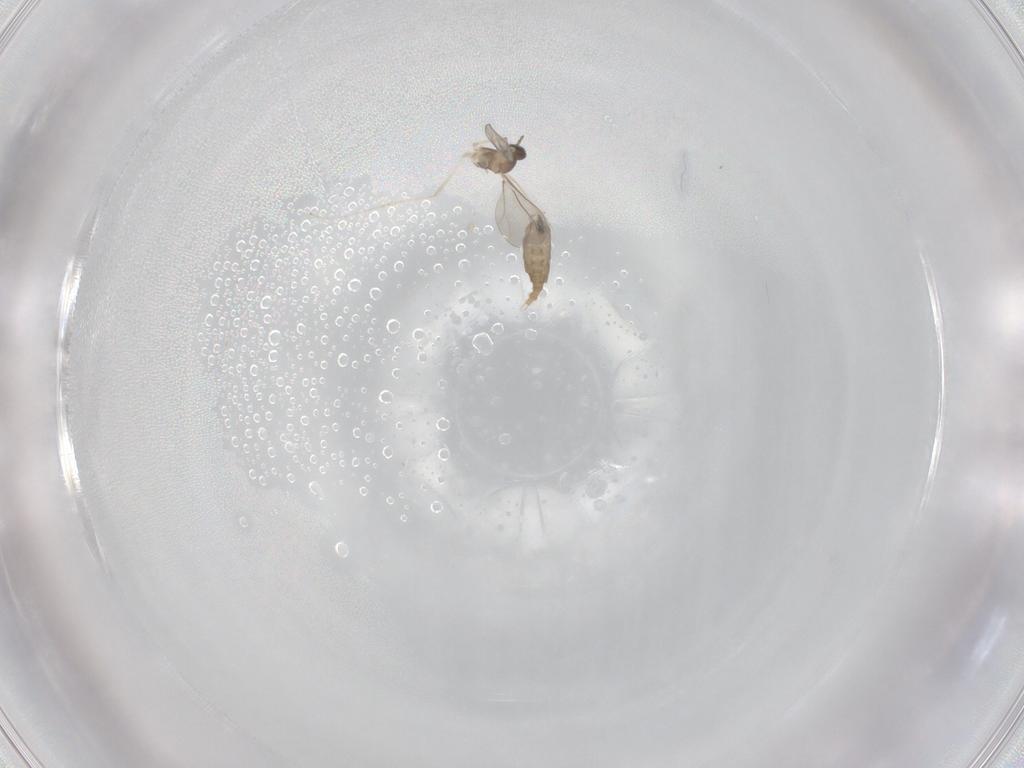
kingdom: Animalia
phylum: Arthropoda
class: Insecta
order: Diptera
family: Cecidomyiidae
